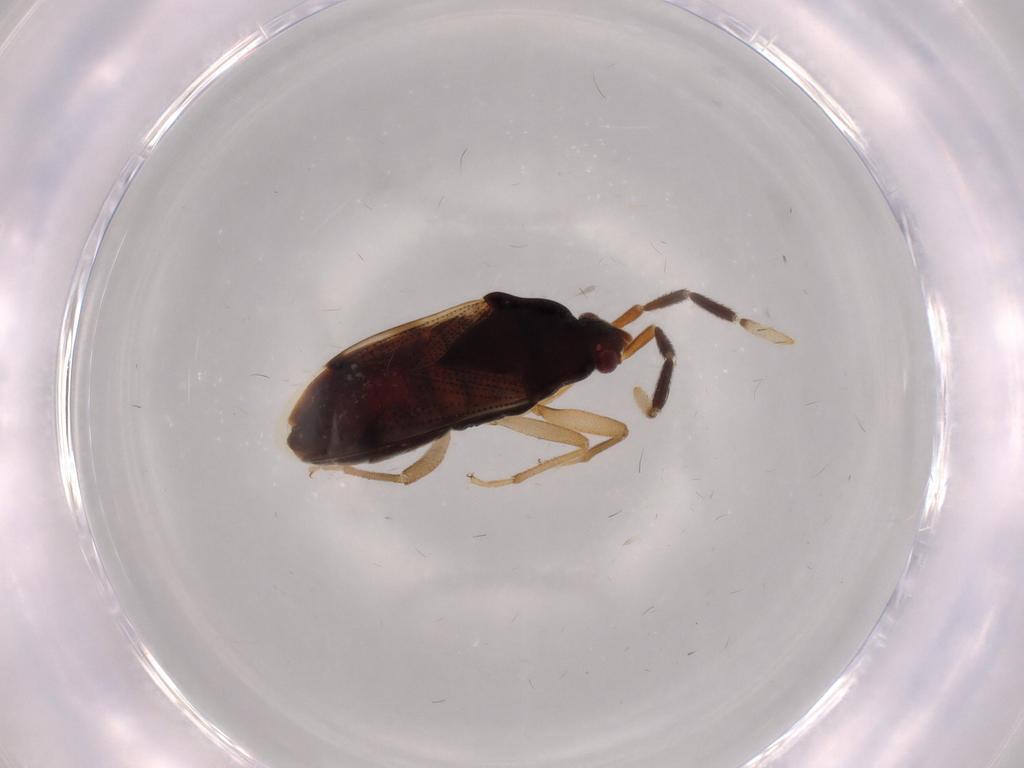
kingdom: Animalia
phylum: Arthropoda
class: Insecta
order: Hemiptera
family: Rhyparochromidae
